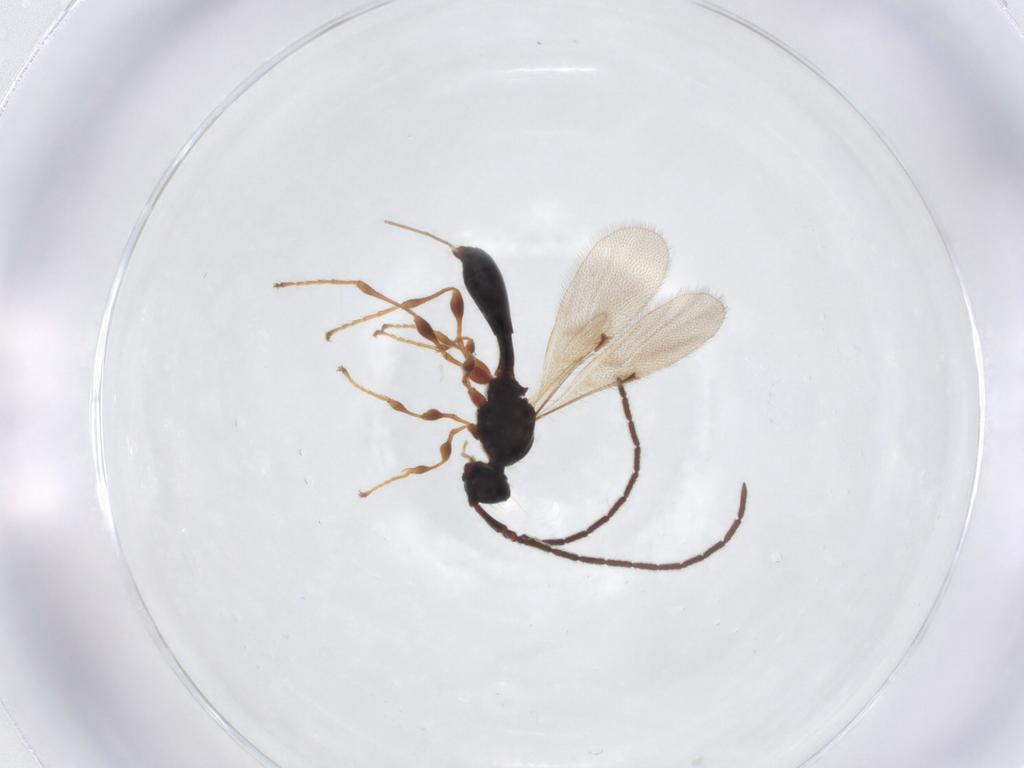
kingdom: Animalia
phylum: Arthropoda
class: Insecta
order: Hymenoptera
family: Diapriidae
